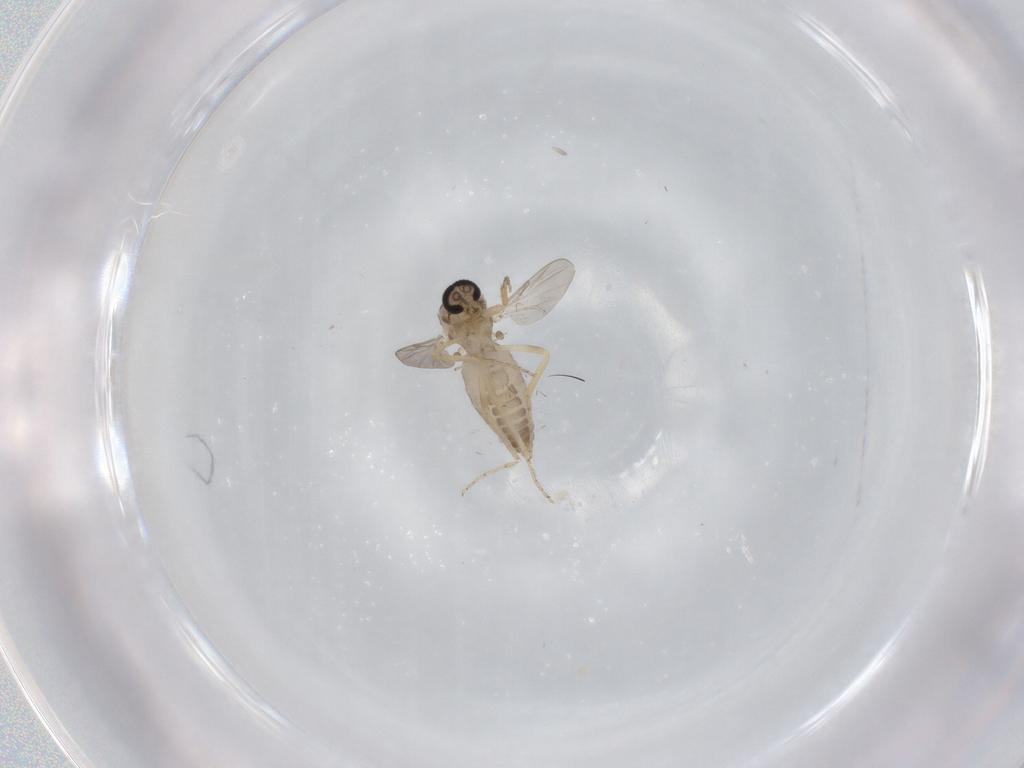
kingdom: Animalia
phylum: Arthropoda
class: Insecta
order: Diptera
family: Ceratopogonidae
